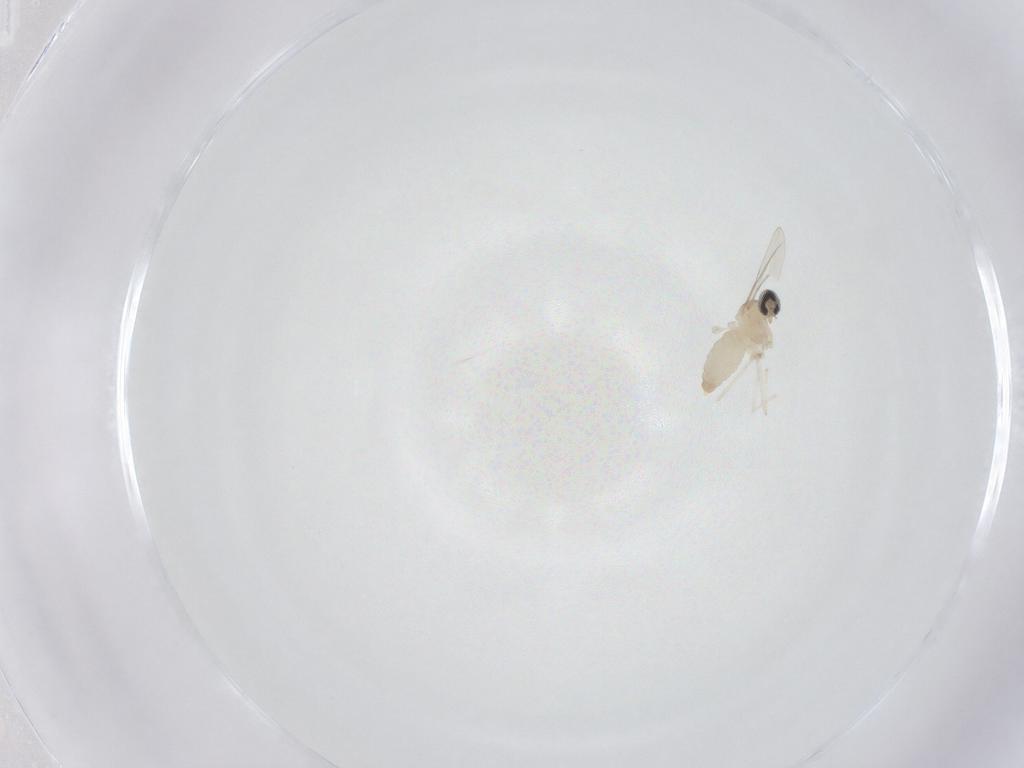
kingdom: Animalia
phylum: Arthropoda
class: Insecta
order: Diptera
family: Cecidomyiidae
